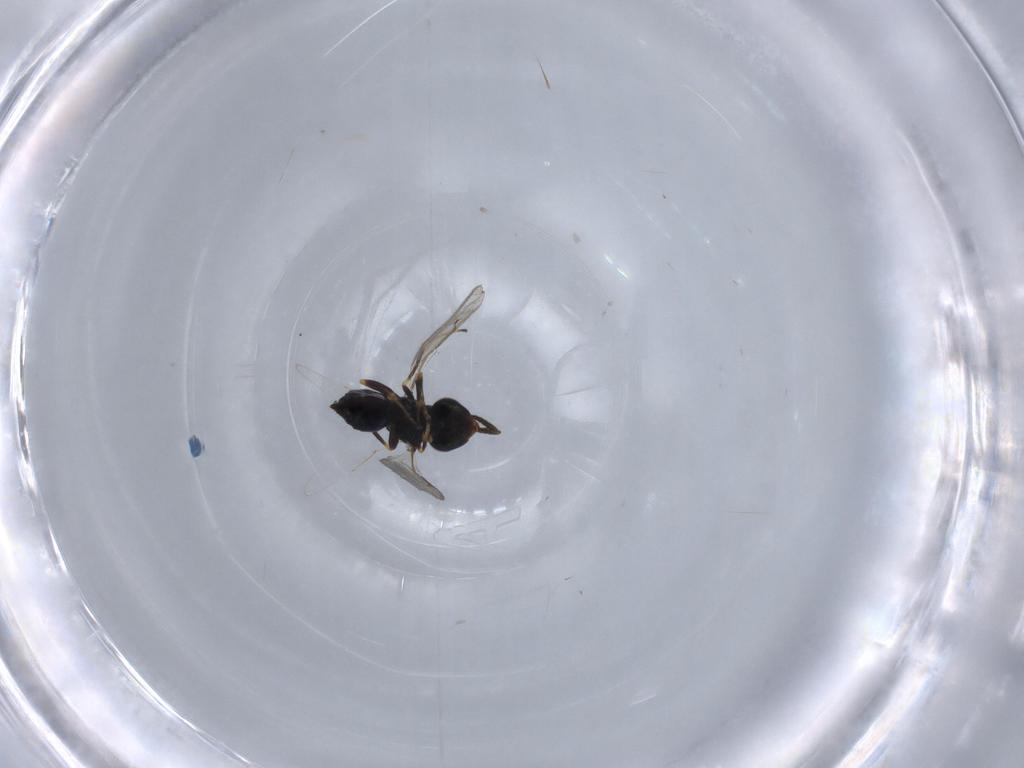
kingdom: Animalia
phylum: Arthropoda
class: Insecta
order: Hymenoptera
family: Pteromalidae
